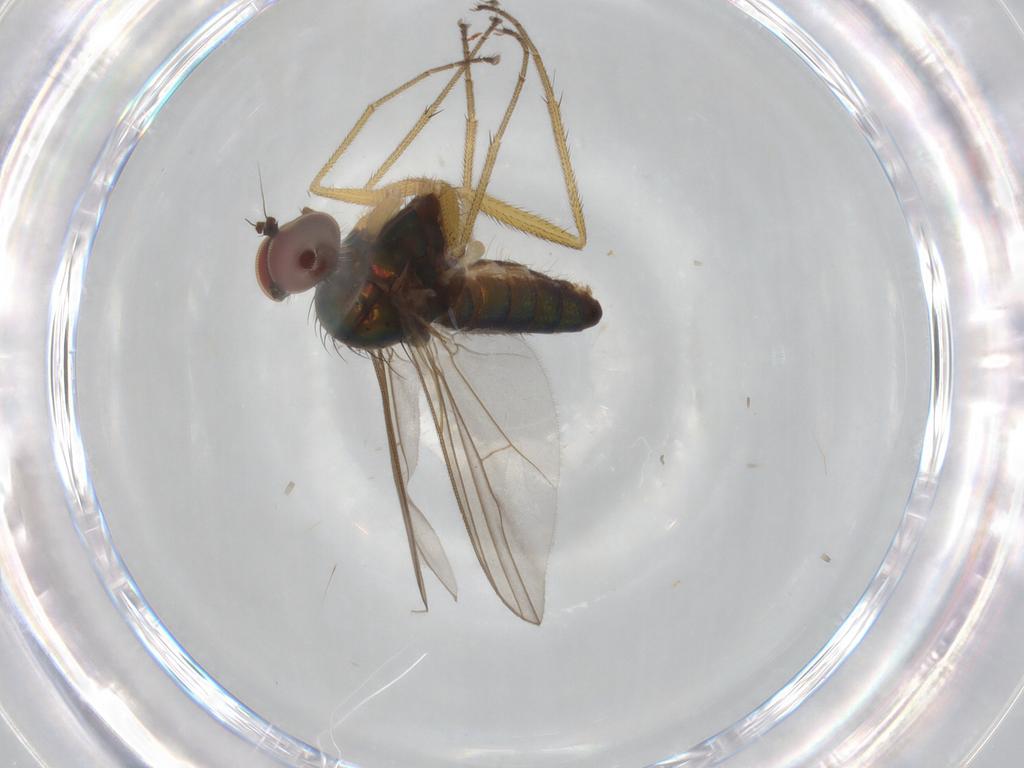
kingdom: Animalia
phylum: Arthropoda
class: Insecta
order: Diptera
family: Dolichopodidae
